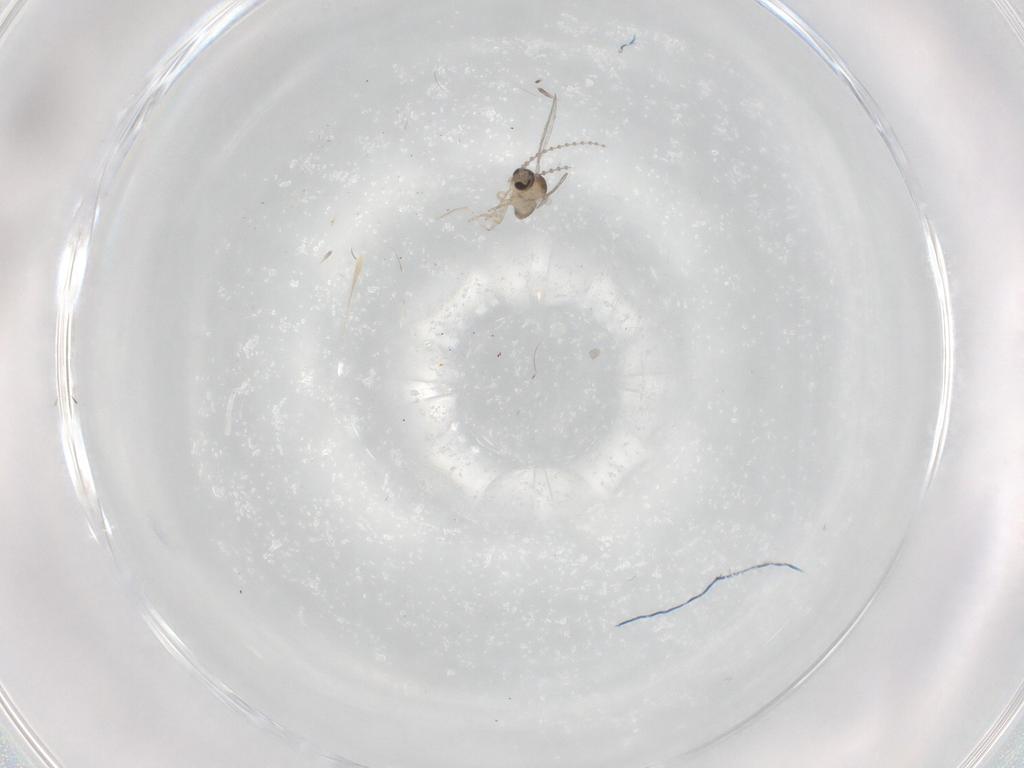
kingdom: Animalia
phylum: Arthropoda
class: Insecta
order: Diptera
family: Cecidomyiidae
